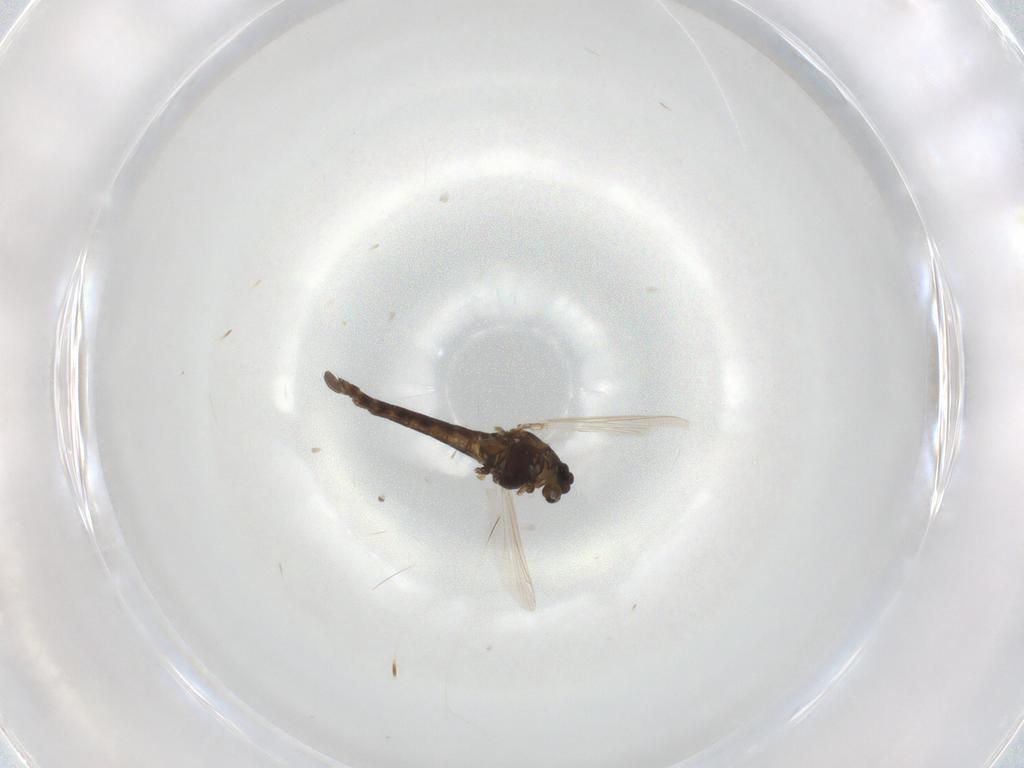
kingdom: Animalia
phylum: Arthropoda
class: Insecta
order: Diptera
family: Chironomidae
